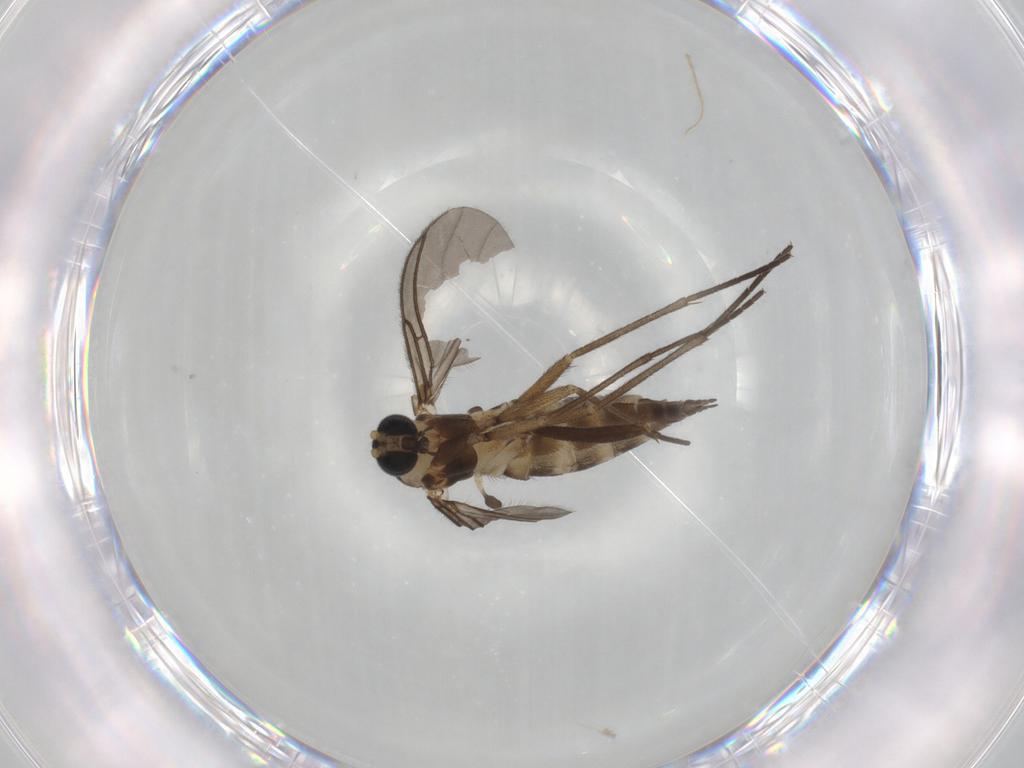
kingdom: Animalia
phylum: Arthropoda
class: Insecta
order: Diptera
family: Sciaridae
